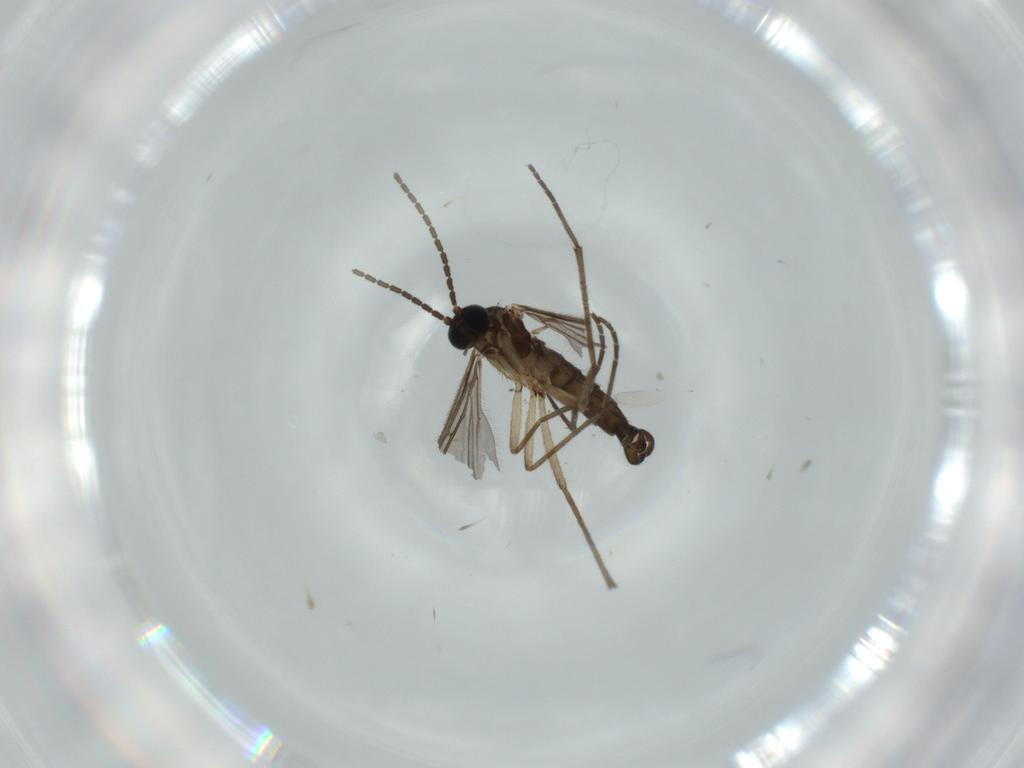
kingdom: Animalia
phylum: Arthropoda
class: Insecta
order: Diptera
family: Sciaridae
